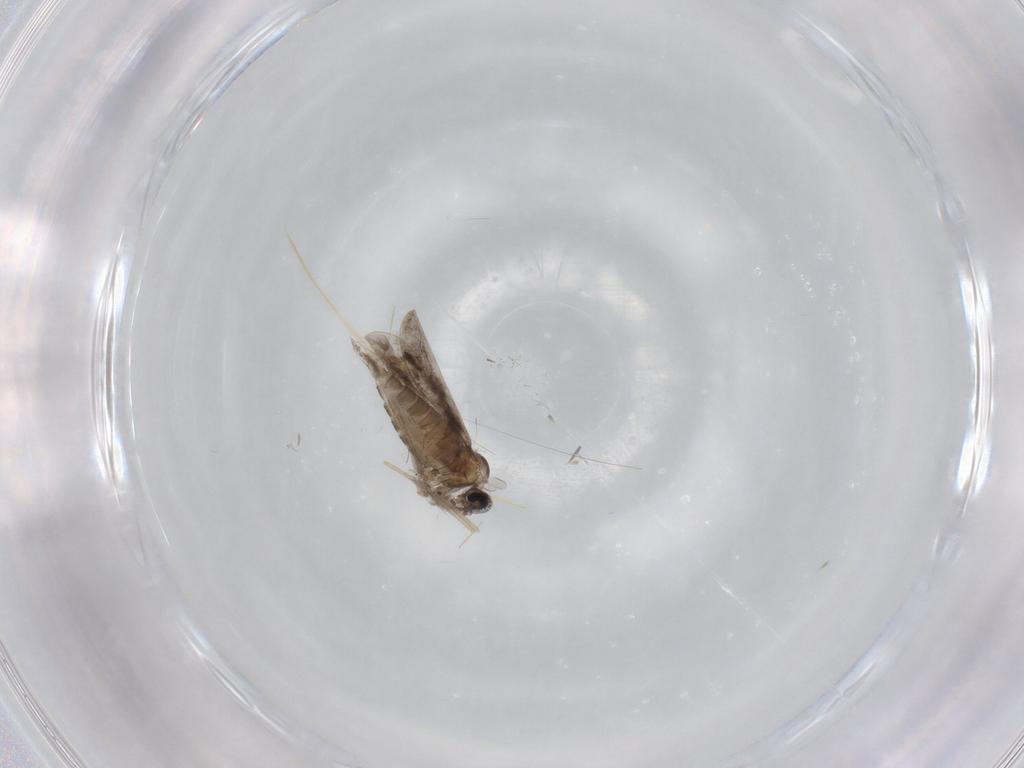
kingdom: Animalia
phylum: Arthropoda
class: Insecta
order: Diptera
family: Cecidomyiidae
